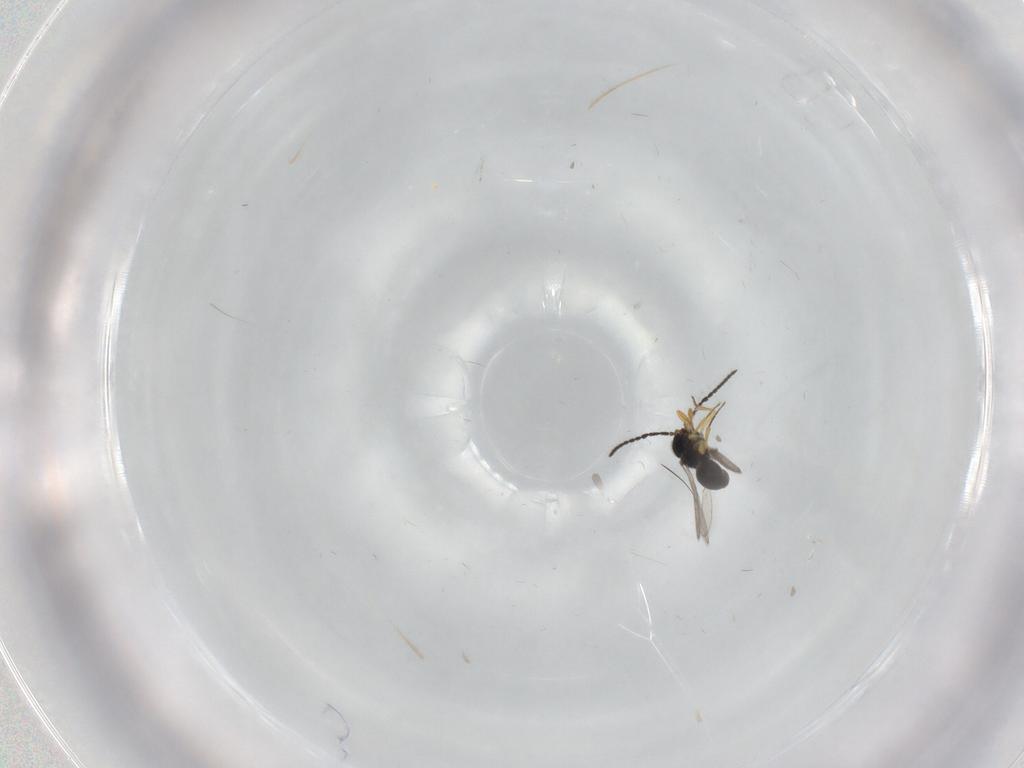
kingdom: Animalia
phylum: Arthropoda
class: Insecta
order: Hymenoptera
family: Scelionidae
